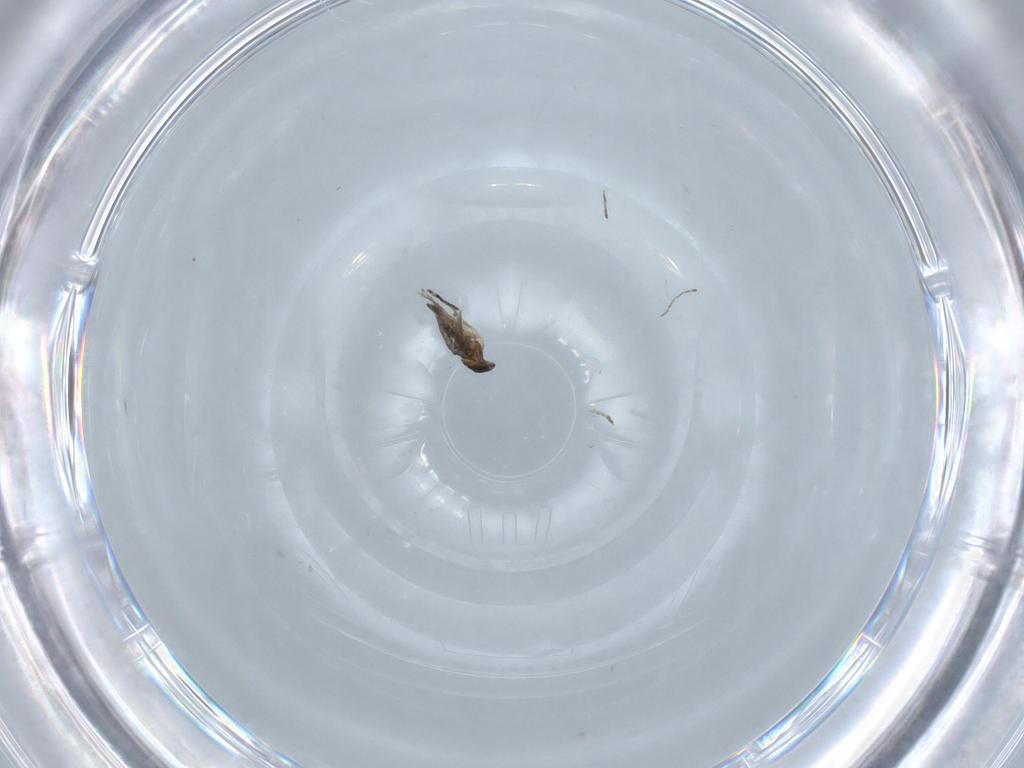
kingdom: Animalia
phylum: Arthropoda
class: Insecta
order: Diptera
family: Cecidomyiidae
